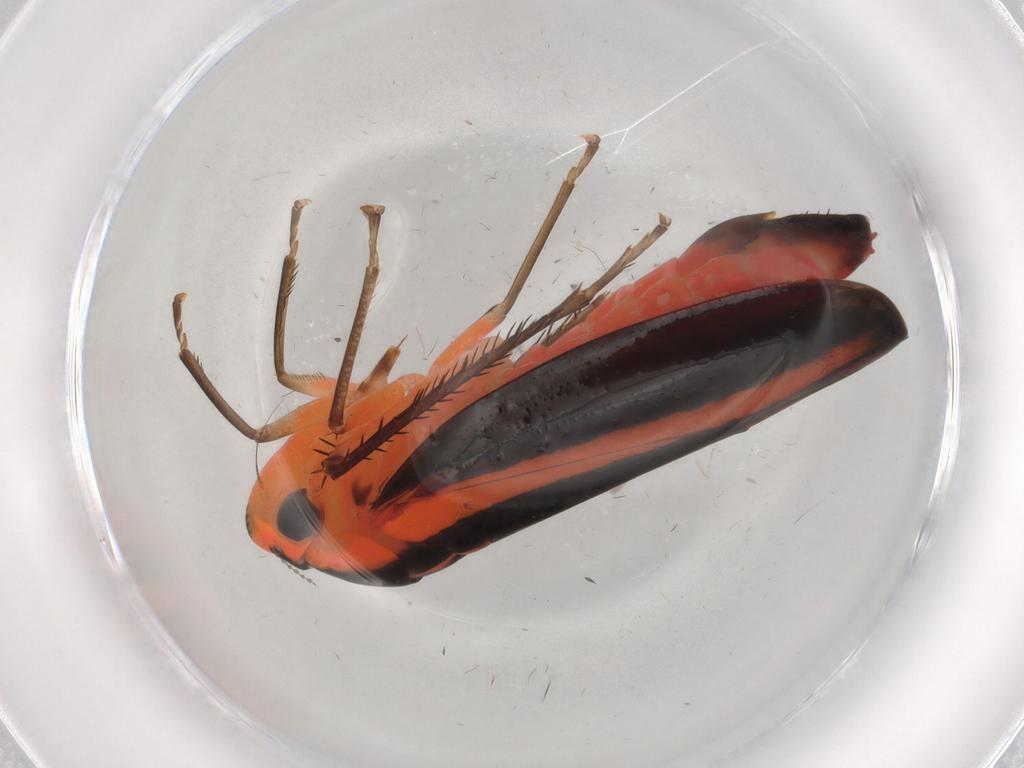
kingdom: Animalia
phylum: Arthropoda
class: Insecta
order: Hemiptera
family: Cicadellidae
